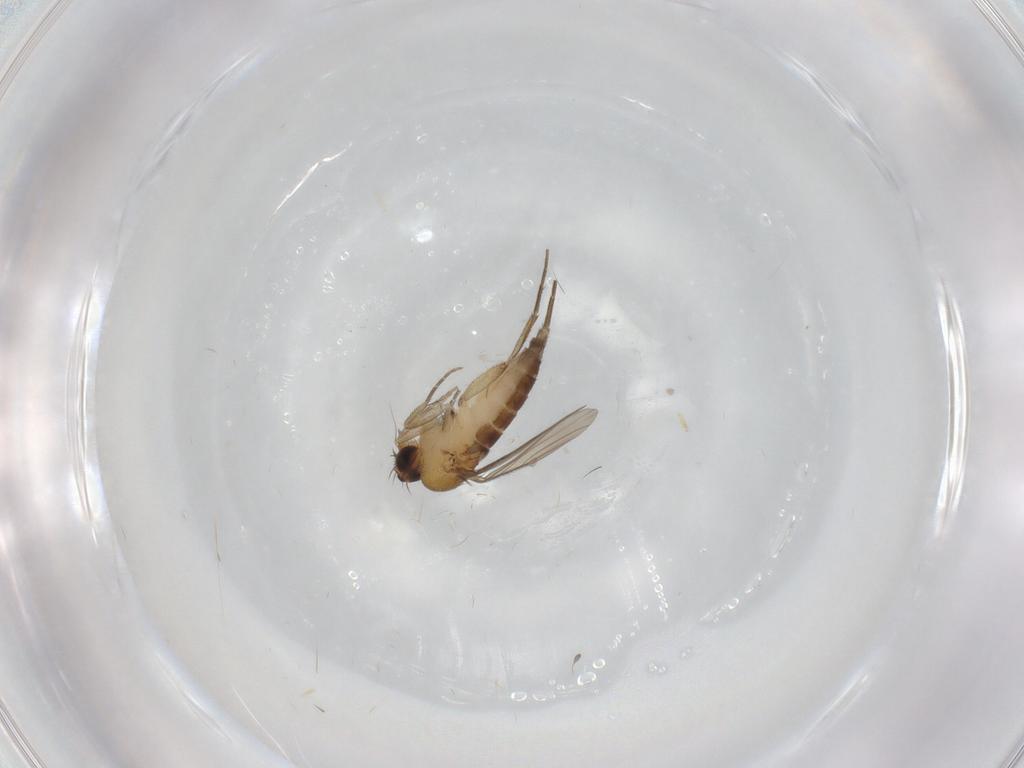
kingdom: Animalia
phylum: Arthropoda
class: Insecta
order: Diptera
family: Phoridae
